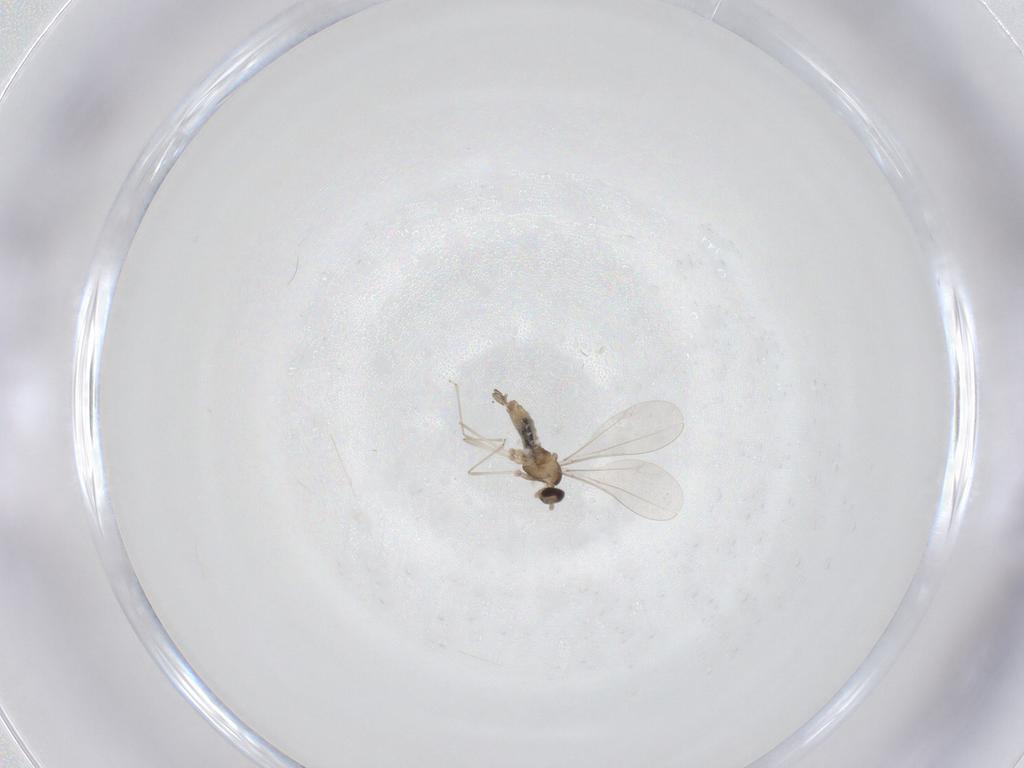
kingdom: Animalia
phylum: Arthropoda
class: Insecta
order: Diptera
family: Cecidomyiidae
